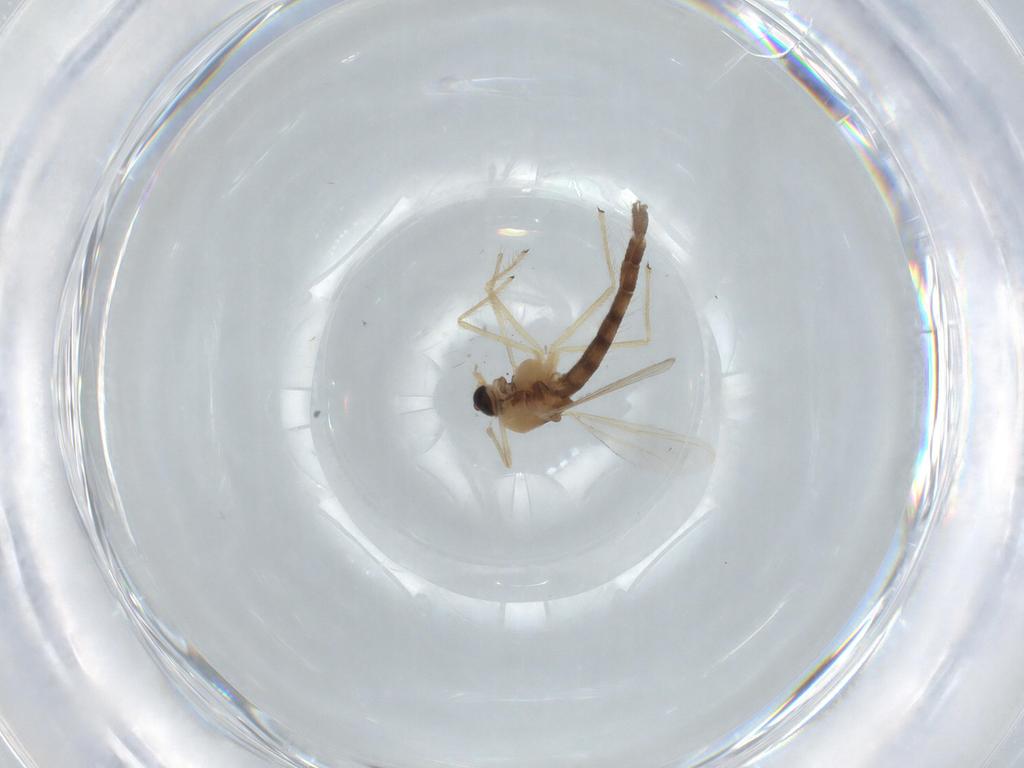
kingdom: Animalia
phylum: Arthropoda
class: Insecta
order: Diptera
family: Chironomidae
